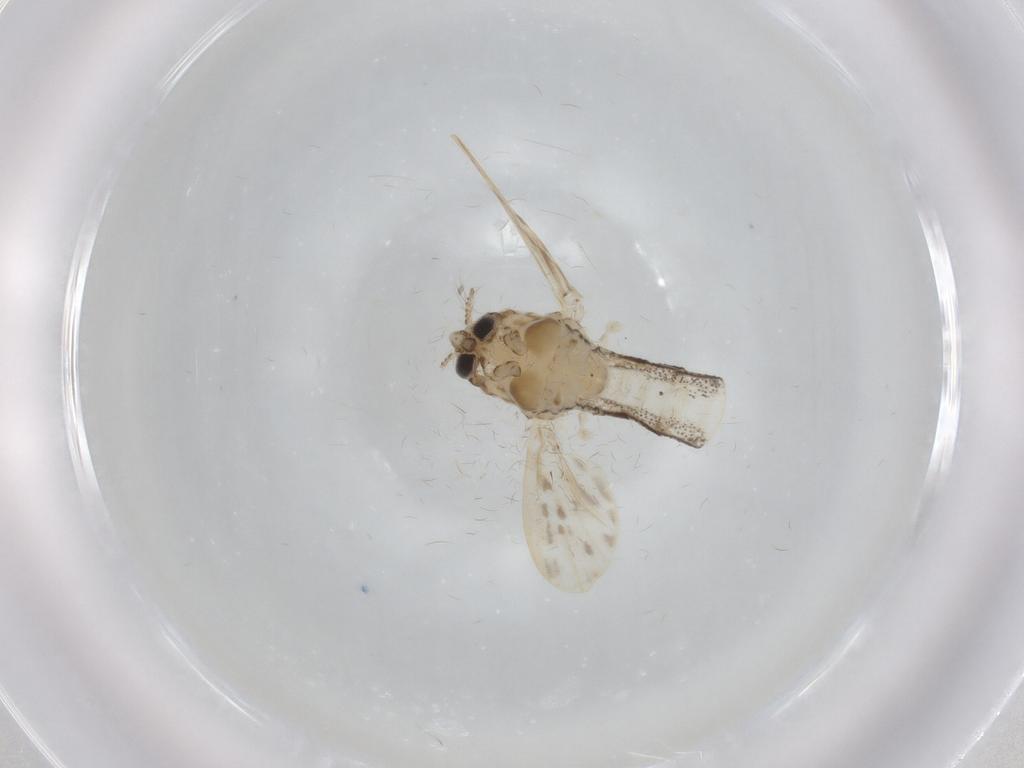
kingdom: Animalia
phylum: Arthropoda
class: Insecta
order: Diptera
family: Chaoboridae
